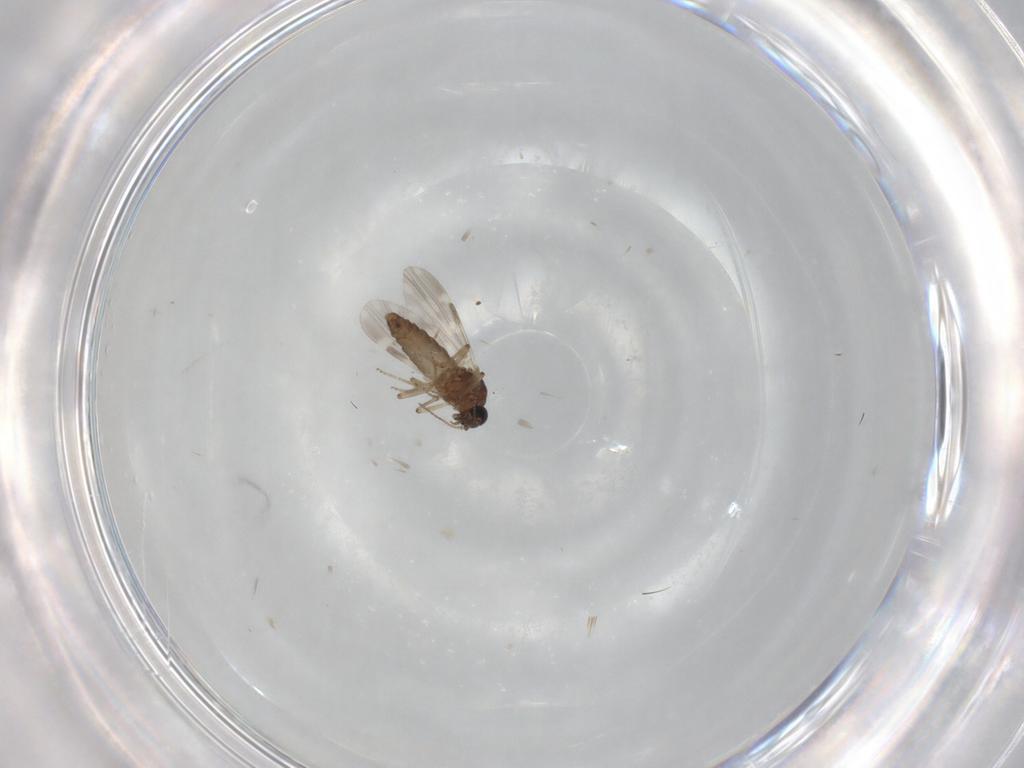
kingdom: Animalia
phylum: Arthropoda
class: Insecta
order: Diptera
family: Ceratopogonidae
